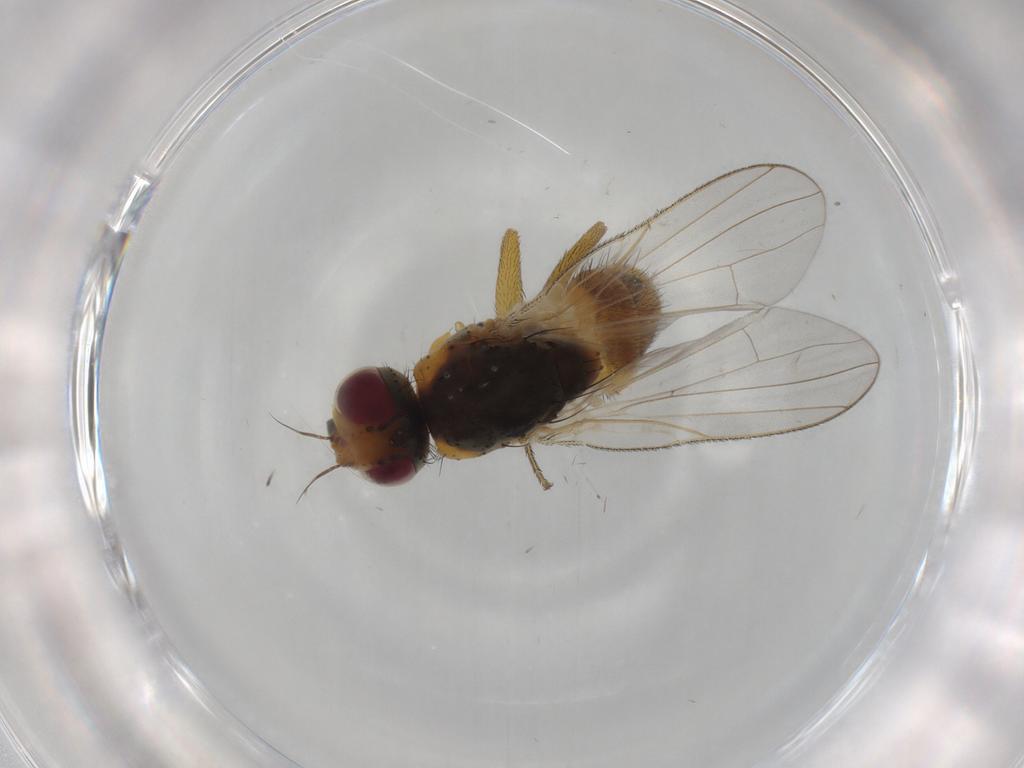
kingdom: Animalia
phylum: Arthropoda
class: Insecta
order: Diptera
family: Muscidae
